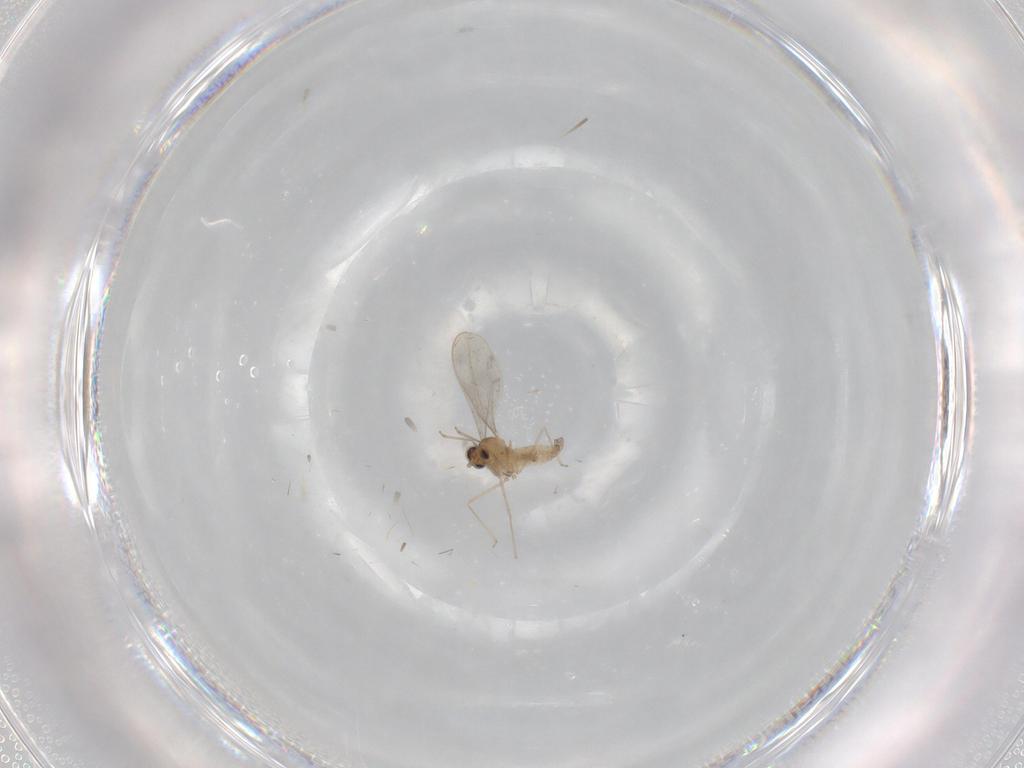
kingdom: Animalia
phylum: Arthropoda
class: Insecta
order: Diptera
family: Cecidomyiidae
